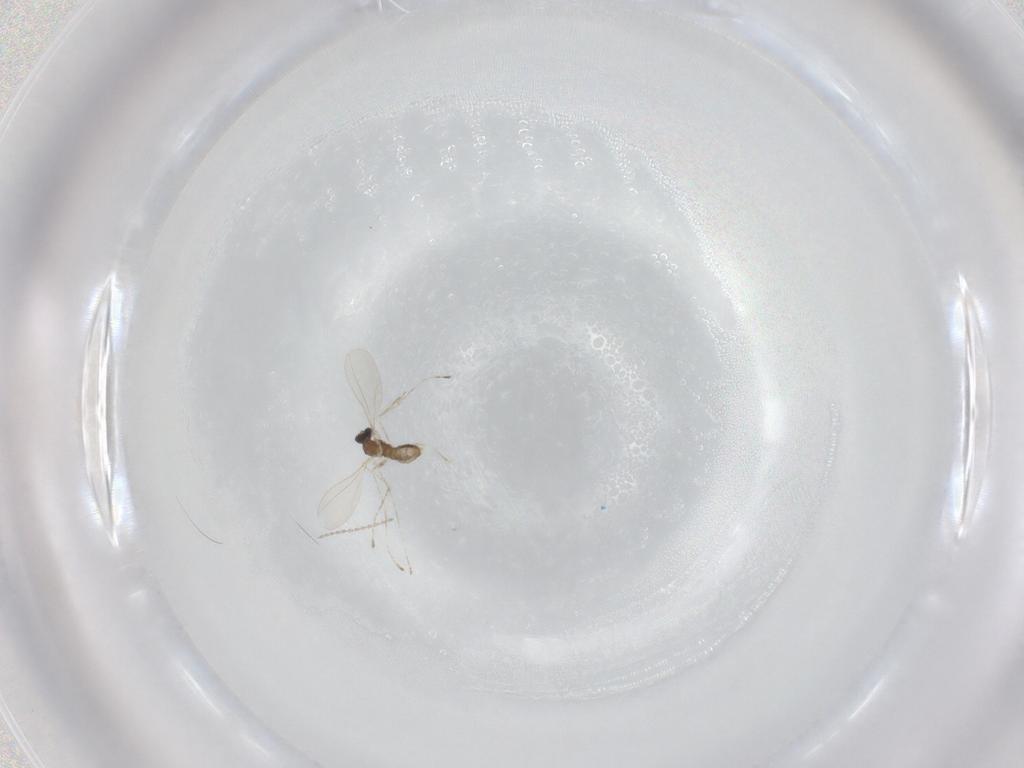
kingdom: Animalia
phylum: Arthropoda
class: Insecta
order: Diptera
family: Cecidomyiidae
